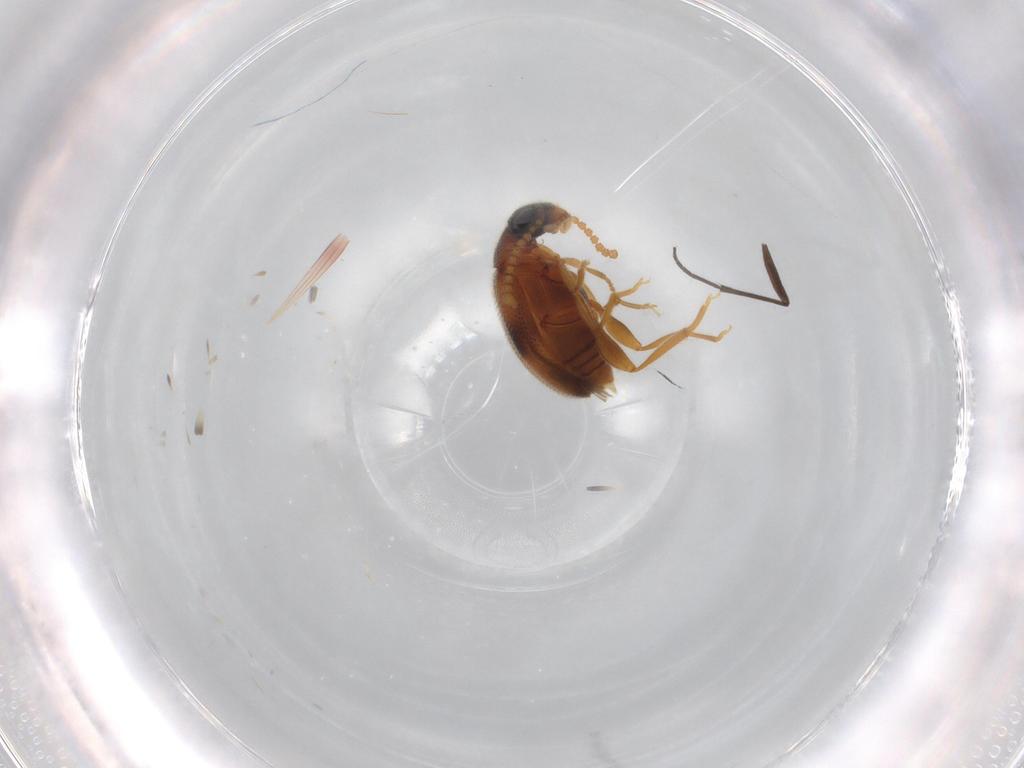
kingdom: Animalia
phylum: Arthropoda
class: Insecta
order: Coleoptera
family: Aderidae
